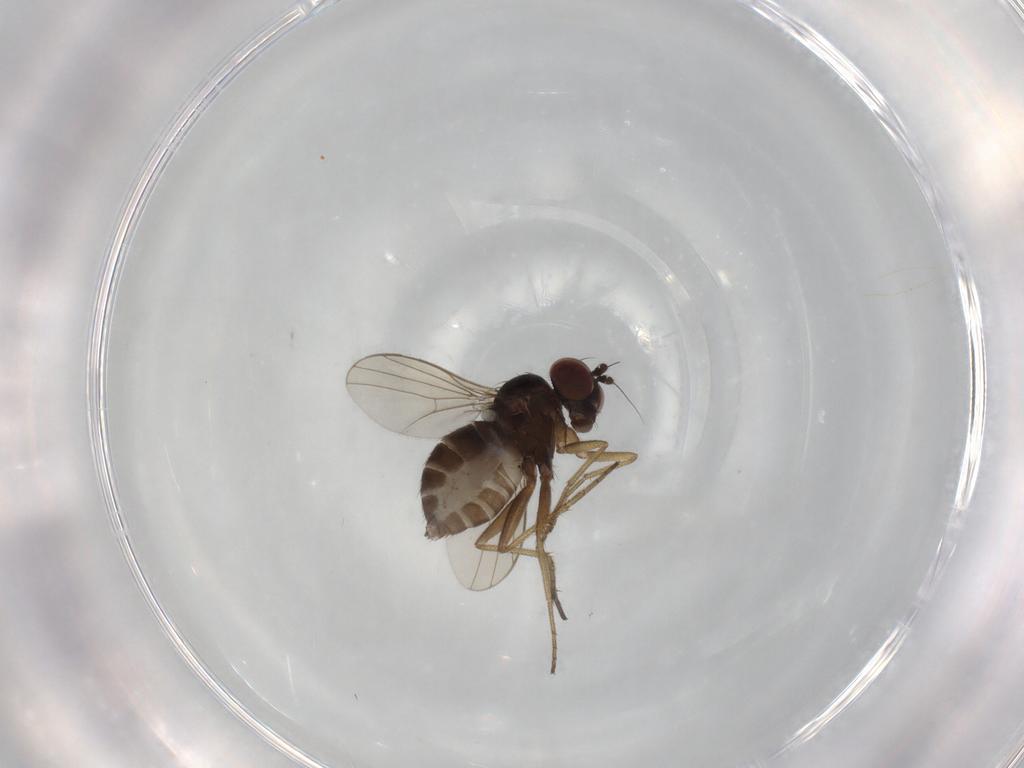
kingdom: Animalia
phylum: Arthropoda
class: Insecta
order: Diptera
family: Dolichopodidae
